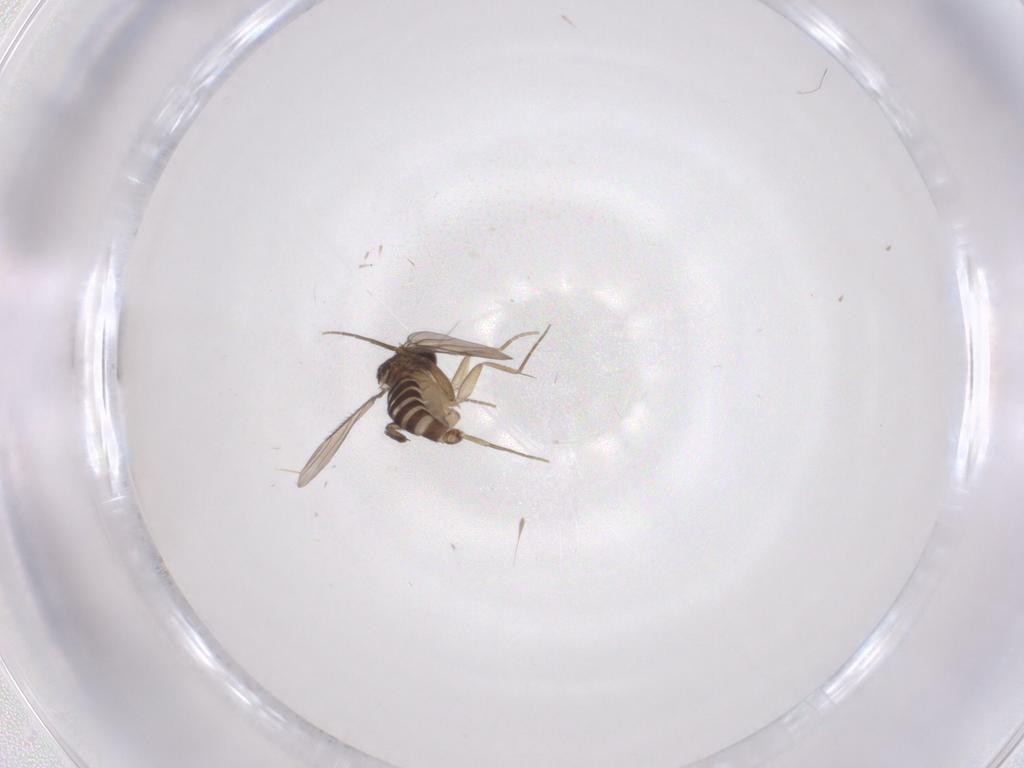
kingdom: Animalia
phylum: Arthropoda
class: Insecta
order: Diptera
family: Phoridae
